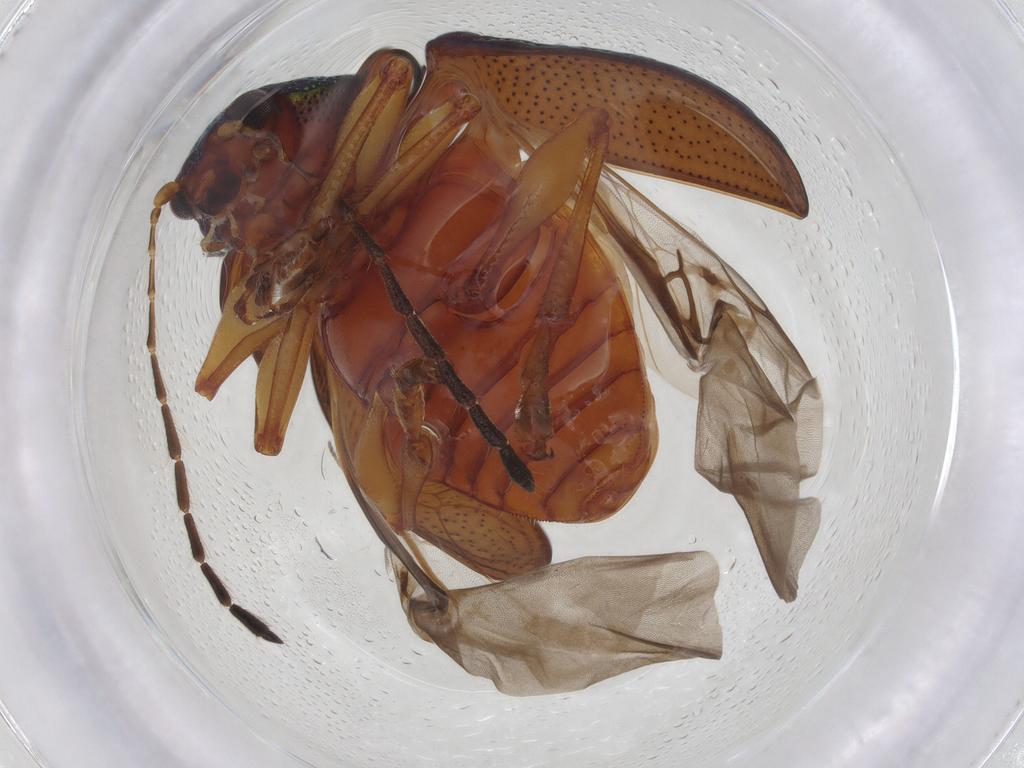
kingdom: Animalia
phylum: Arthropoda
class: Insecta
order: Coleoptera
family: Chrysomelidae
